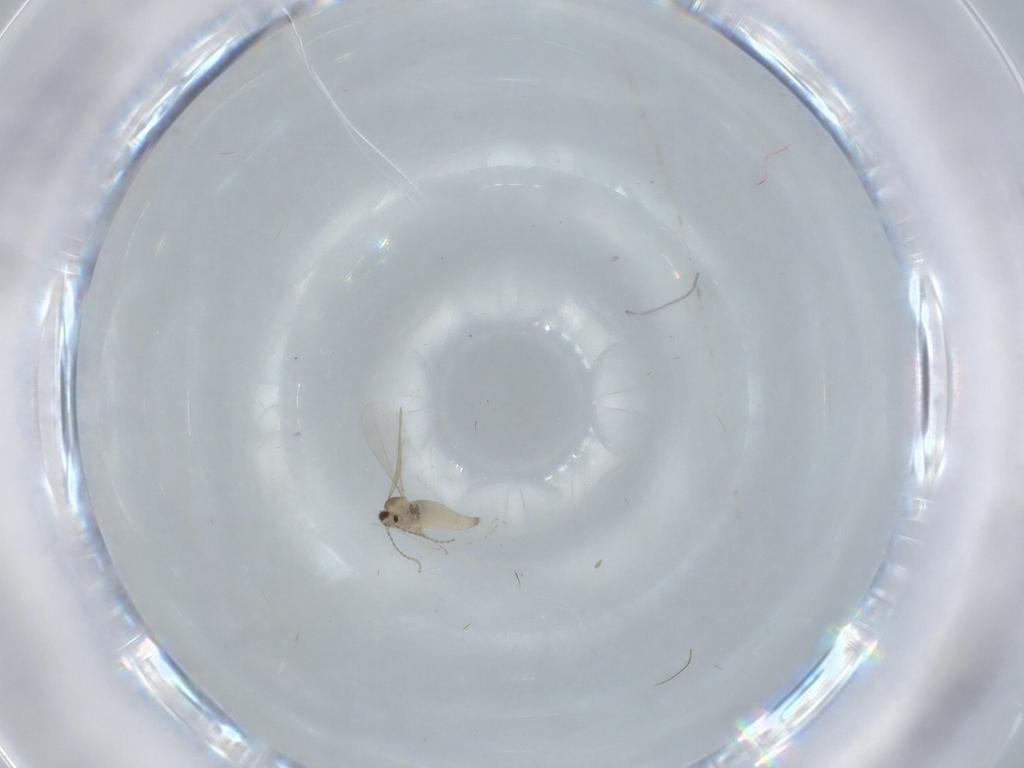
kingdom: Animalia
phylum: Arthropoda
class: Insecta
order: Diptera
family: Cecidomyiidae
